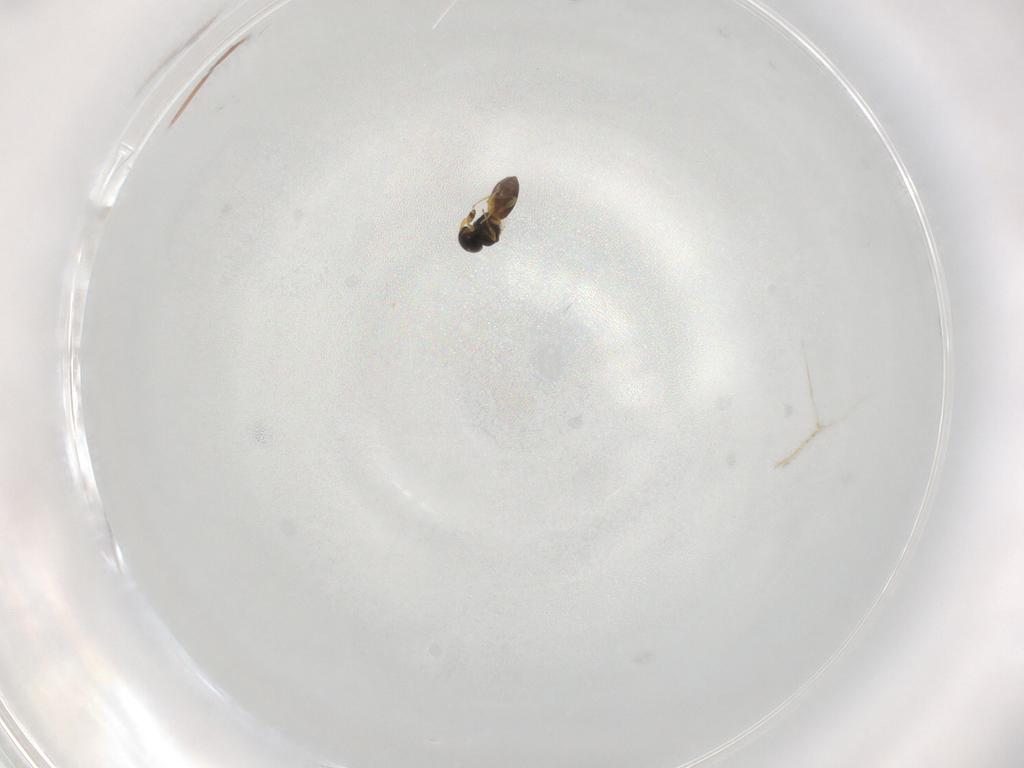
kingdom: Animalia
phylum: Arthropoda
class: Insecta
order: Hymenoptera
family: Platygastridae
